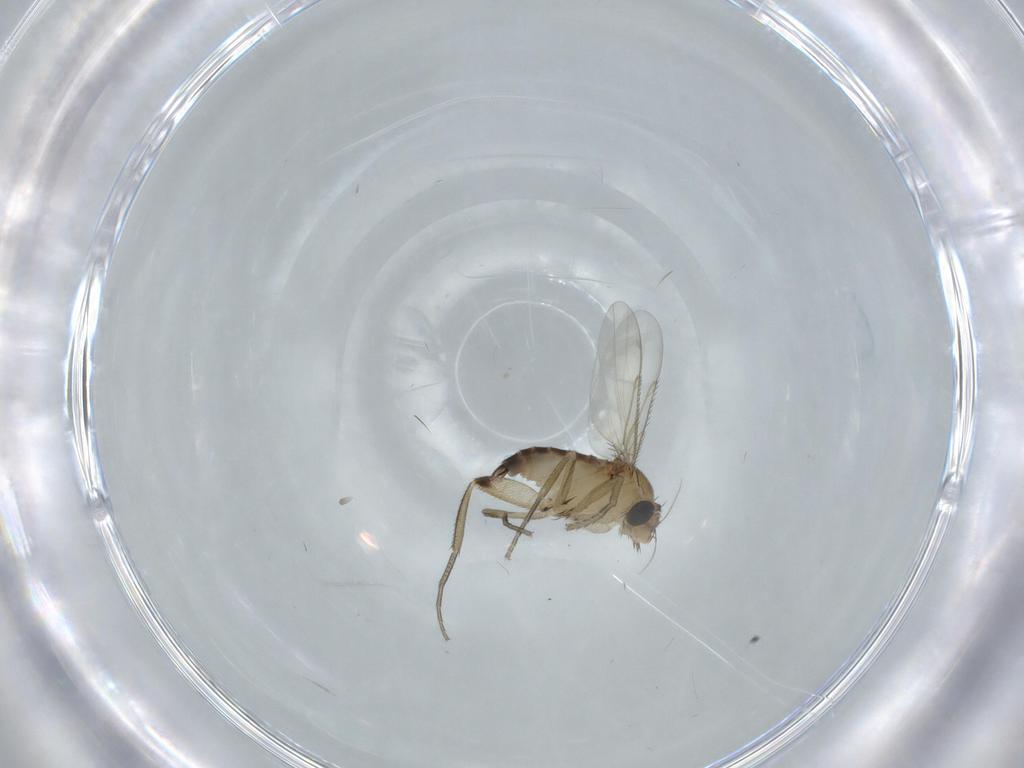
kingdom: Animalia
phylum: Arthropoda
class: Insecta
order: Diptera
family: Phoridae
